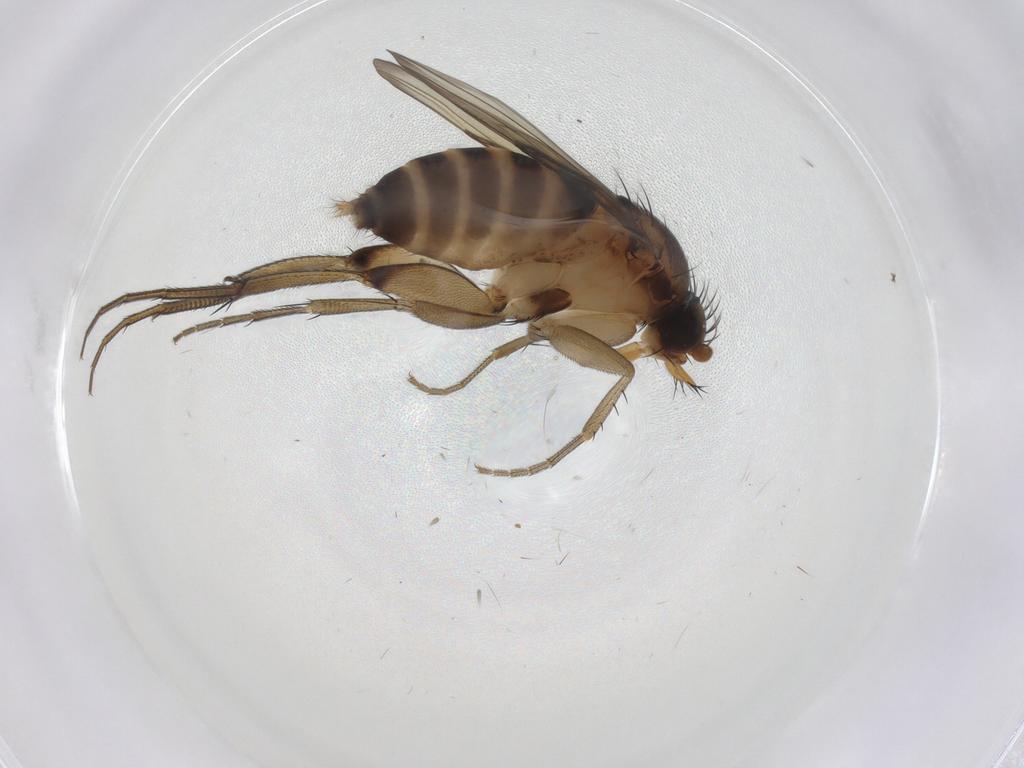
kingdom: Animalia
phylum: Arthropoda
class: Insecta
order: Diptera
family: Phoridae
